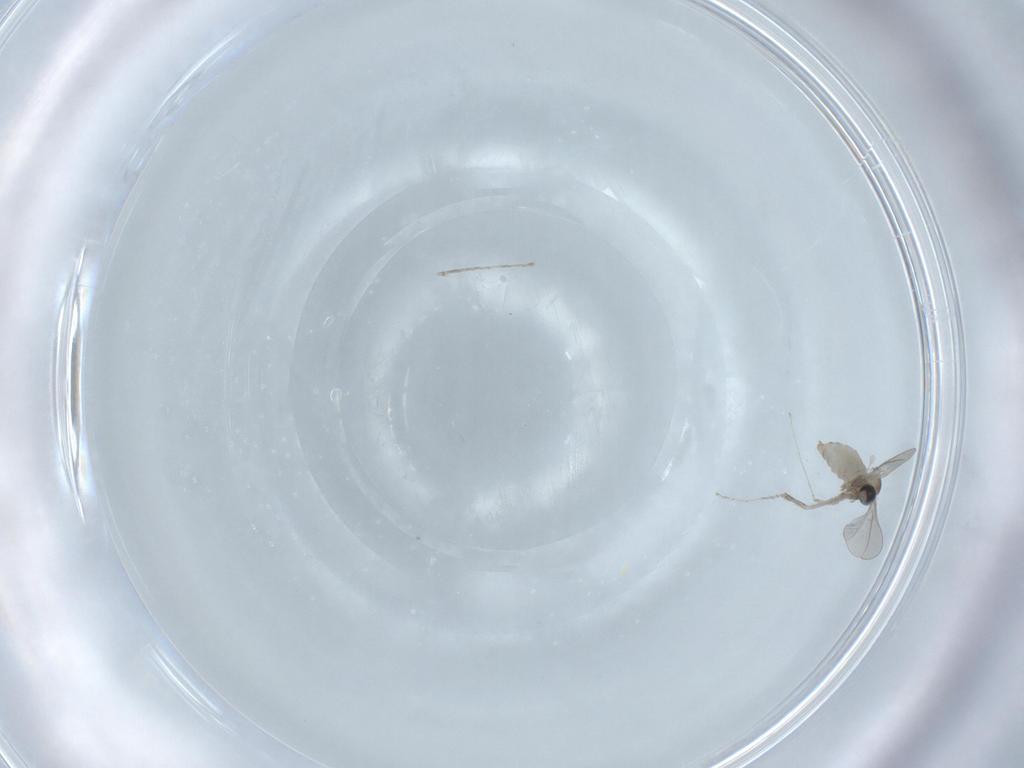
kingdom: Animalia
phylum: Arthropoda
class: Insecta
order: Diptera
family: Cecidomyiidae
